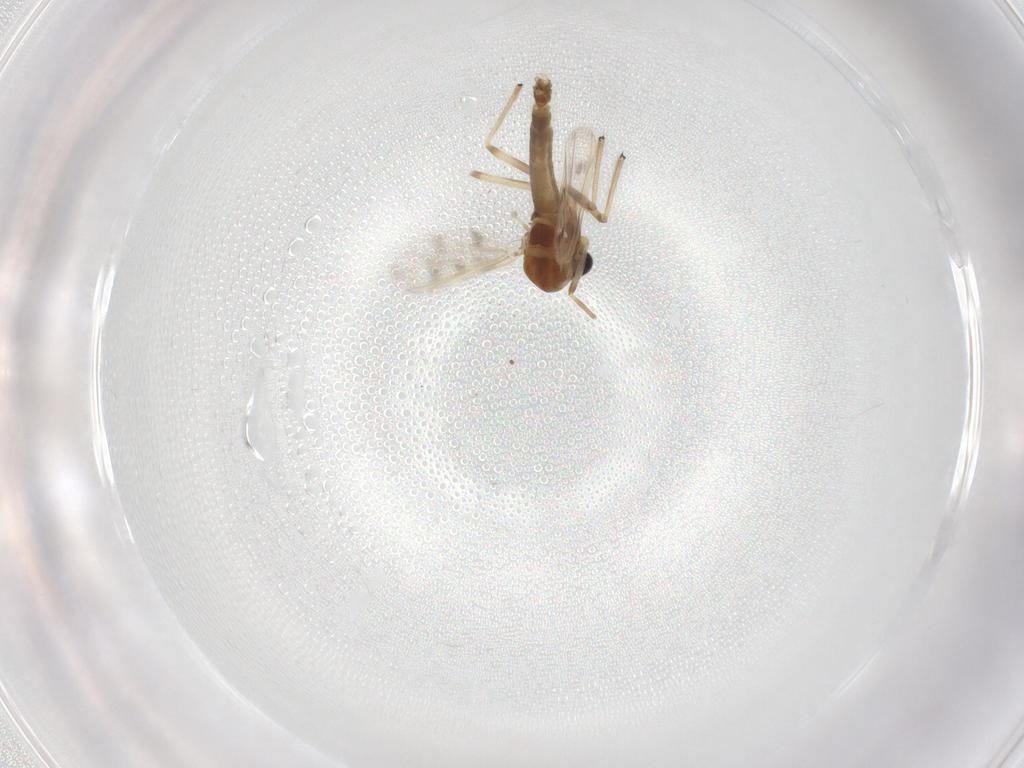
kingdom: Animalia
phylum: Arthropoda
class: Insecta
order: Diptera
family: Chironomidae
